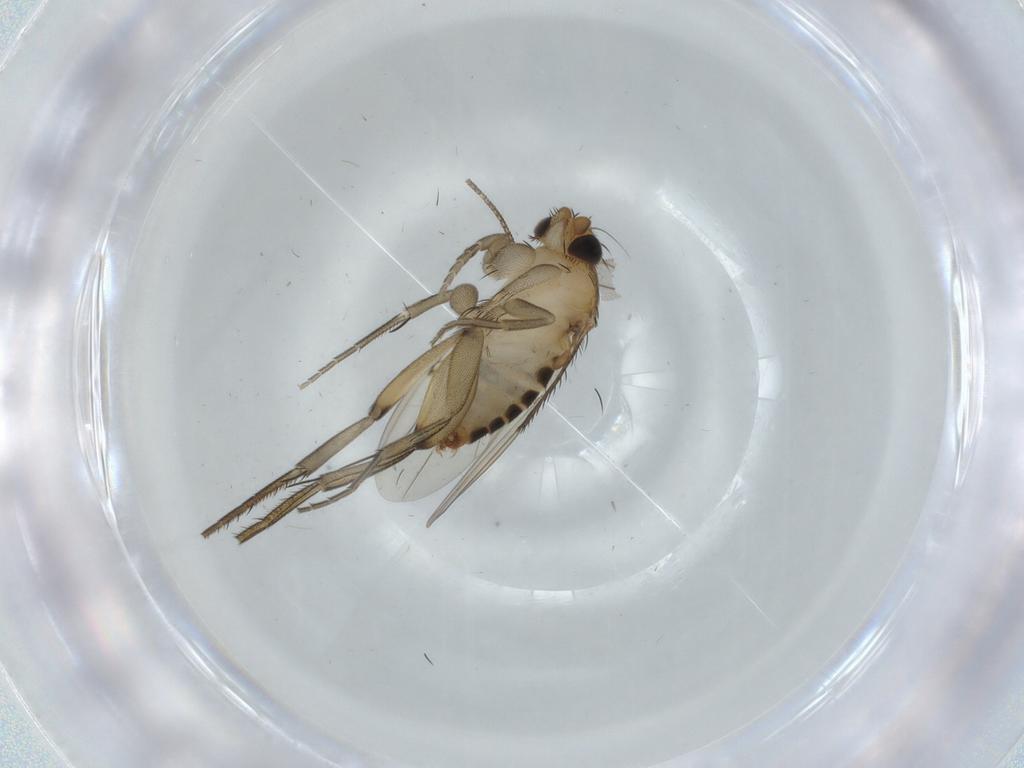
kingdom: Animalia
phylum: Arthropoda
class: Insecta
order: Diptera
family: Phoridae
